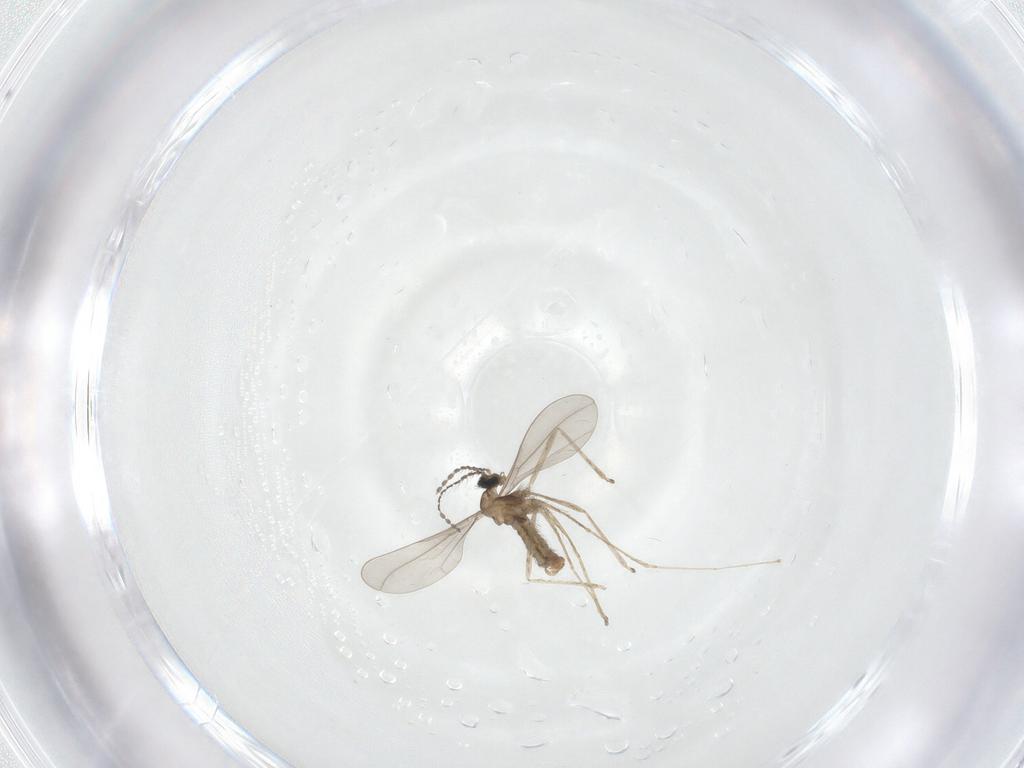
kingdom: Animalia
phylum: Arthropoda
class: Insecta
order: Diptera
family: Cecidomyiidae
